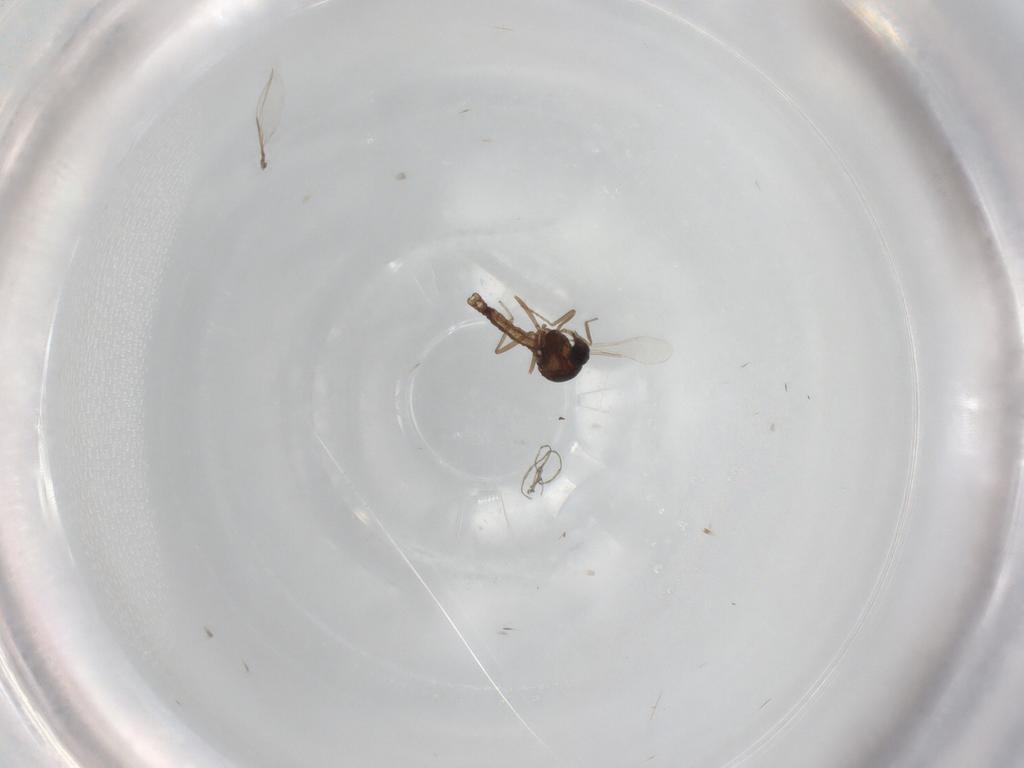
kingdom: Animalia
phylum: Arthropoda
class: Insecta
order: Diptera
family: Ceratopogonidae
